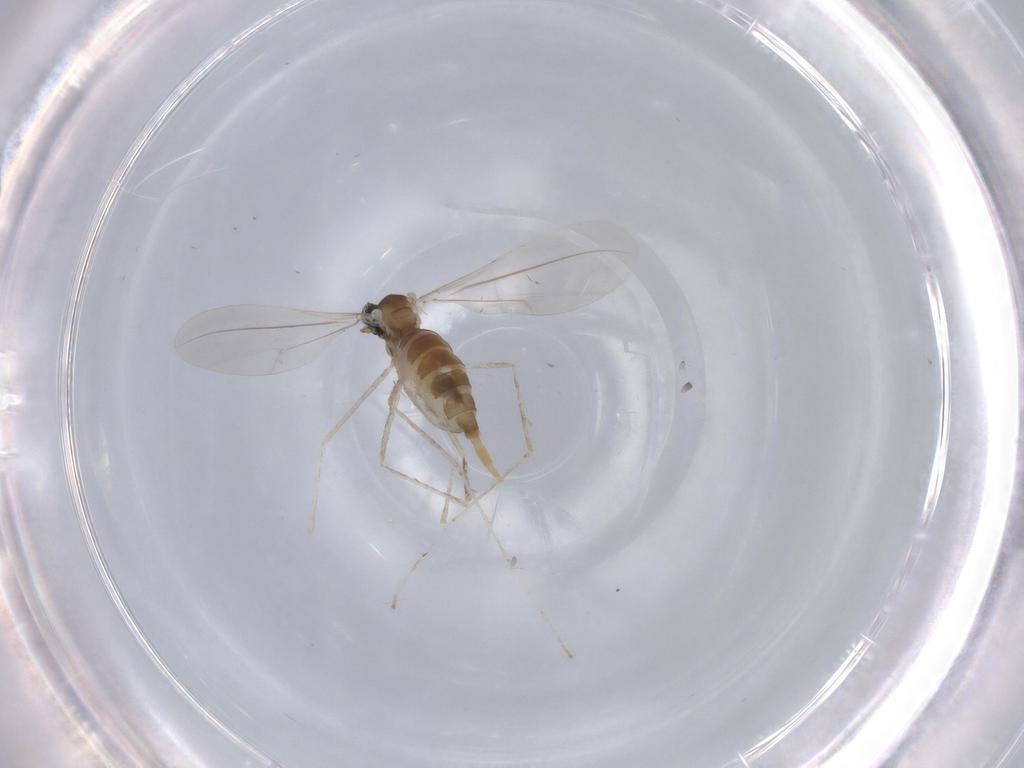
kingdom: Animalia
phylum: Arthropoda
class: Insecta
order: Diptera
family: Cecidomyiidae
